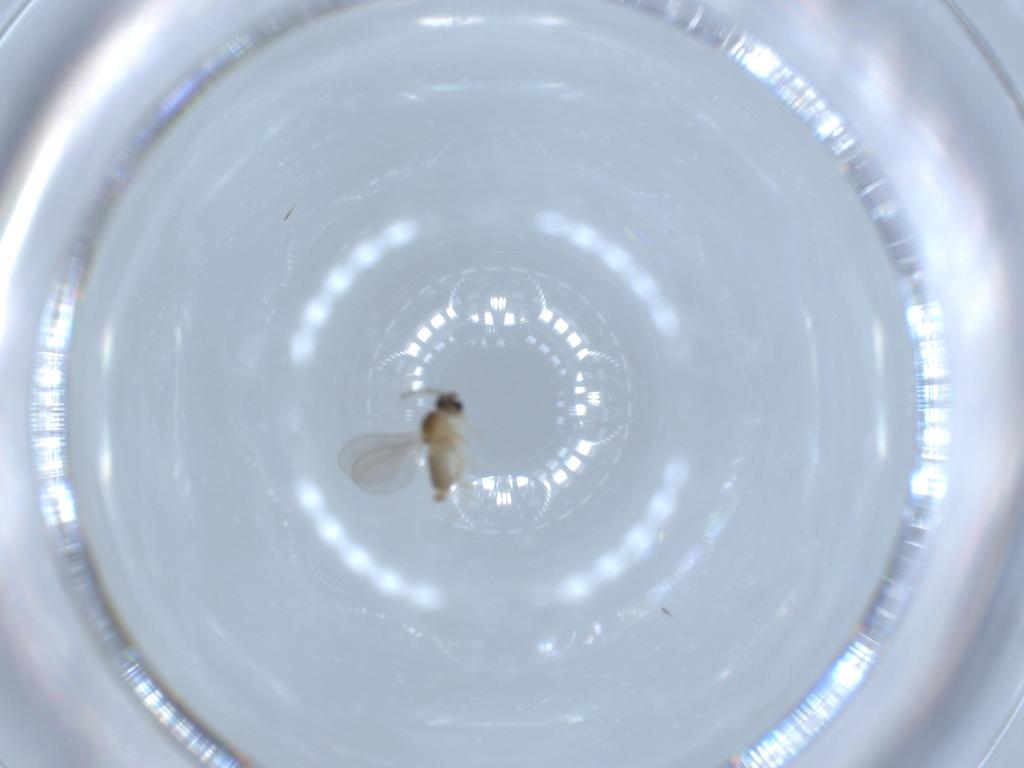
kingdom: Animalia
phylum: Arthropoda
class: Insecta
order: Diptera
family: Cecidomyiidae
